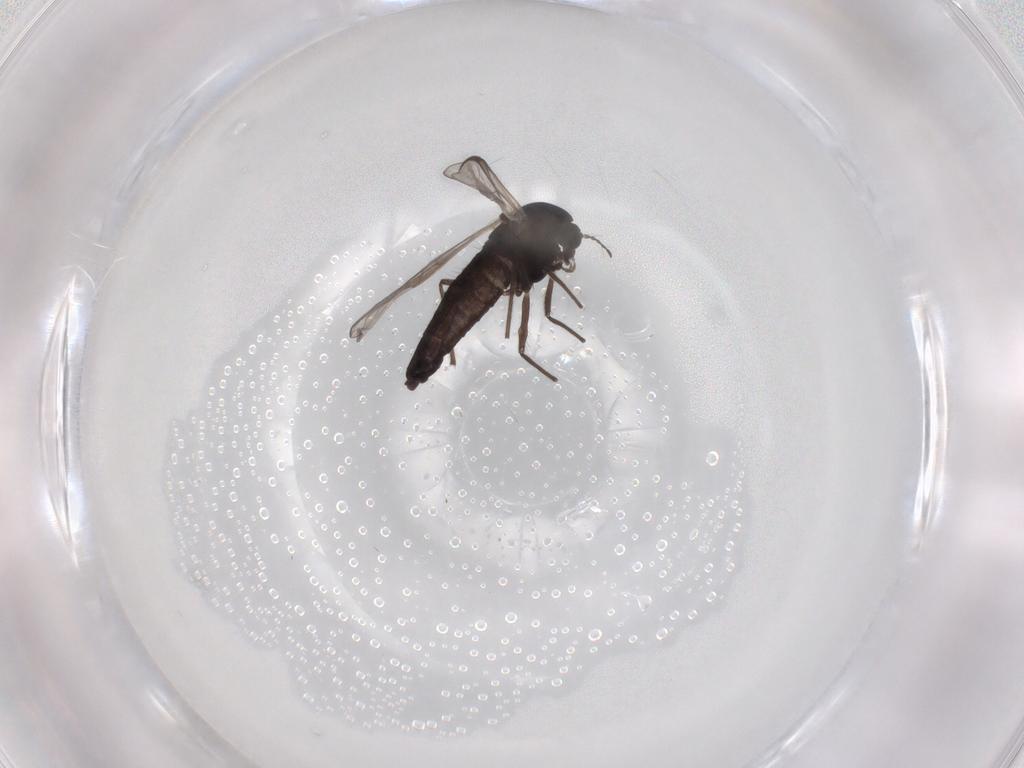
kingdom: Animalia
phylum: Arthropoda
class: Insecta
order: Diptera
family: Chironomidae
